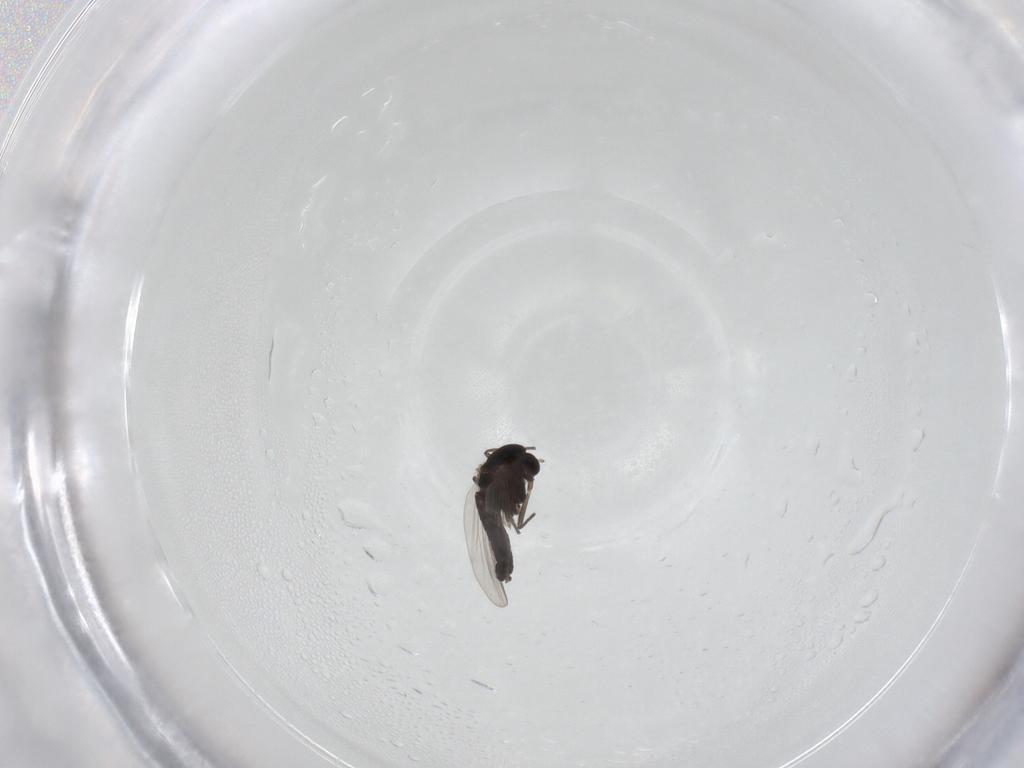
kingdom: Animalia
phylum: Arthropoda
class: Insecta
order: Diptera
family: Chironomidae
